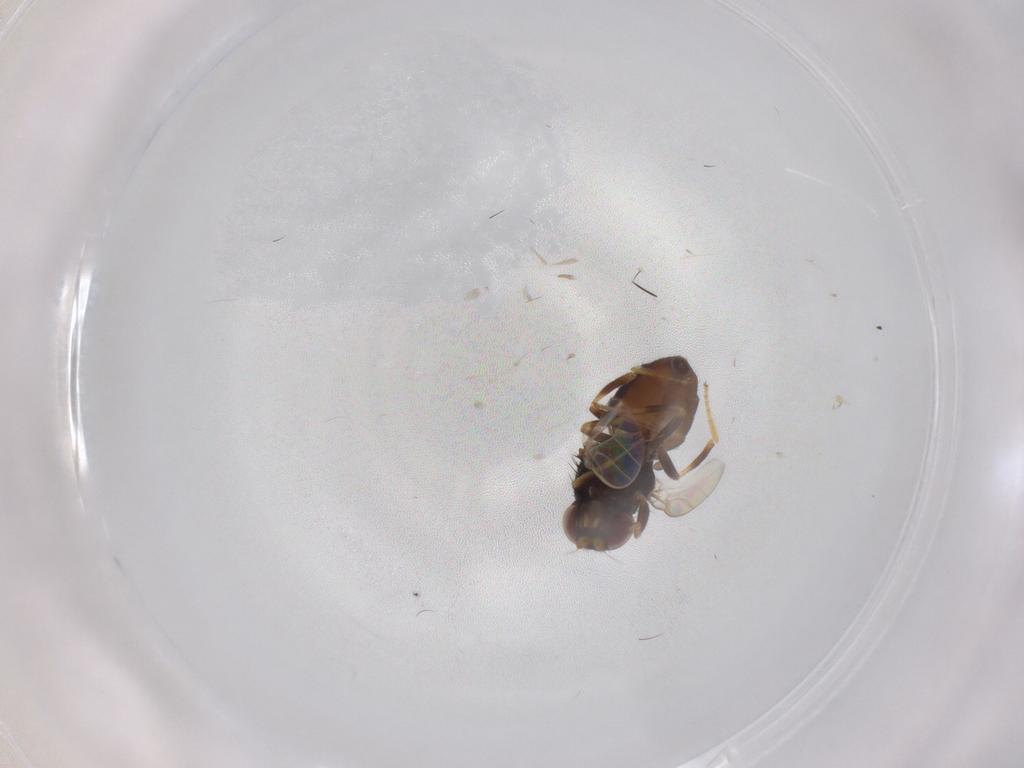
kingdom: Animalia
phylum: Arthropoda
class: Insecta
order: Diptera
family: Chloropidae
